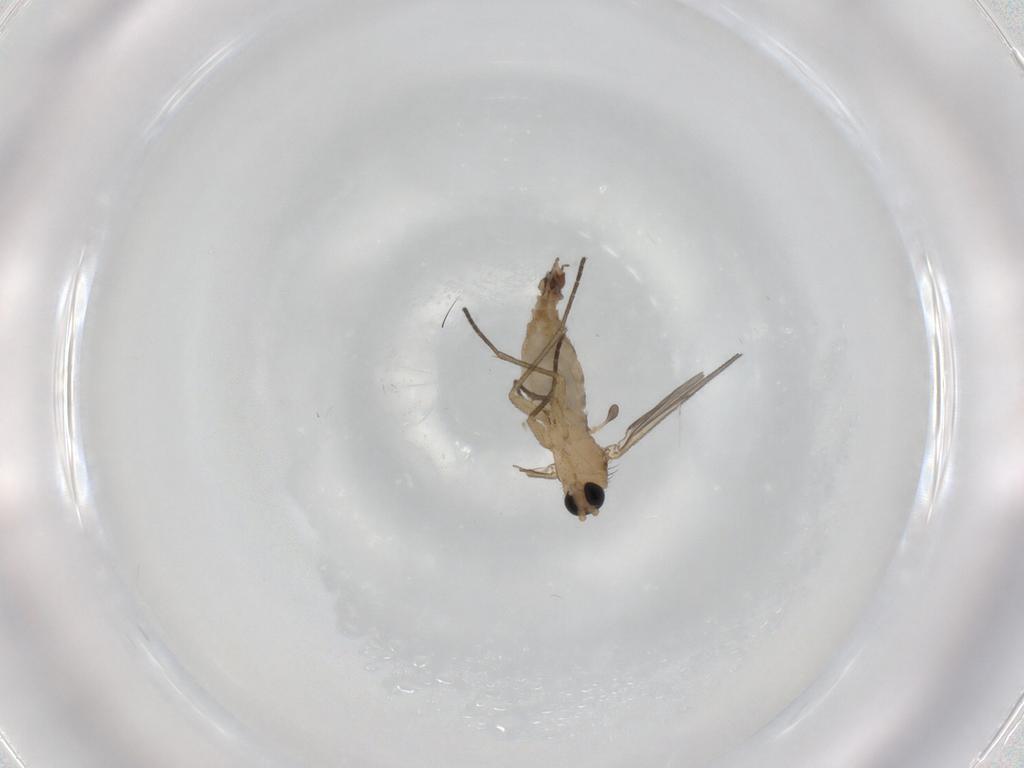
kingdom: Animalia
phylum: Arthropoda
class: Insecta
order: Diptera
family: Sciaridae
